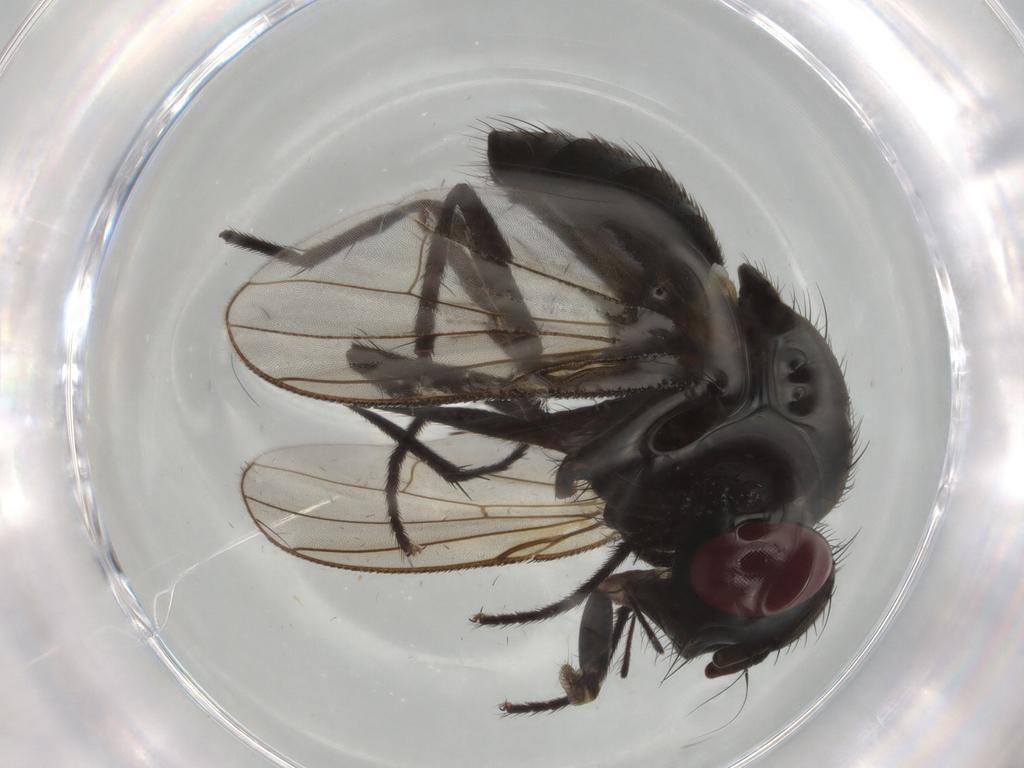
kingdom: Animalia
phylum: Arthropoda
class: Insecta
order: Diptera
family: Muscidae
